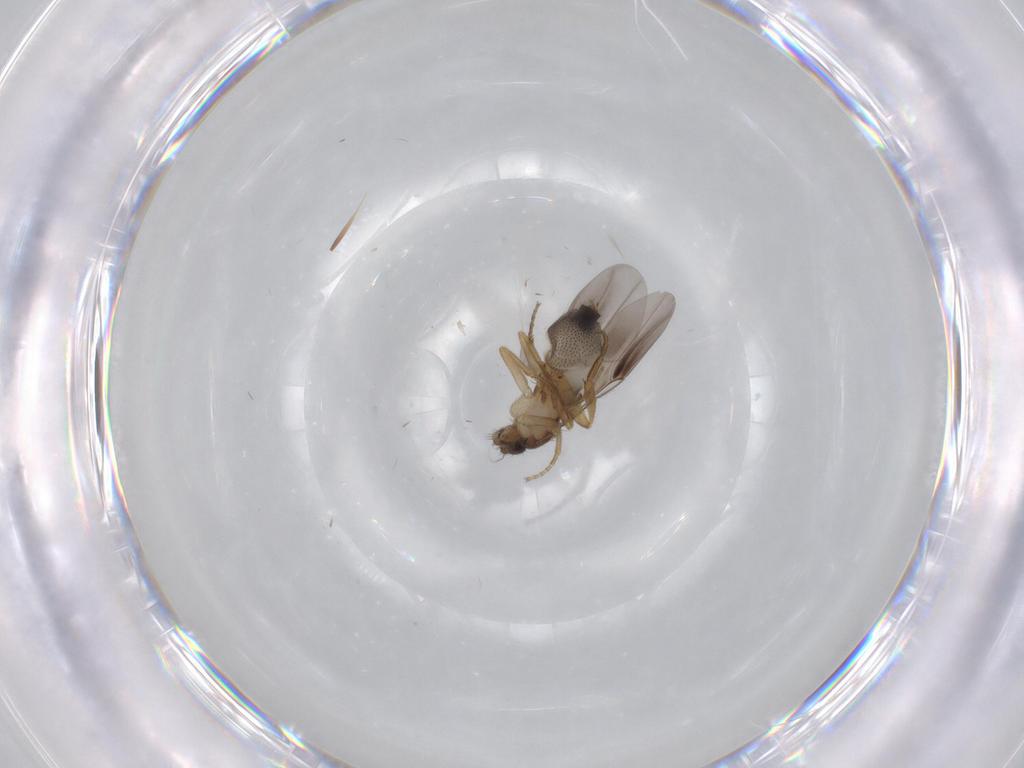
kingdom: Animalia
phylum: Arthropoda
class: Insecta
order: Diptera
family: Dolichopodidae
